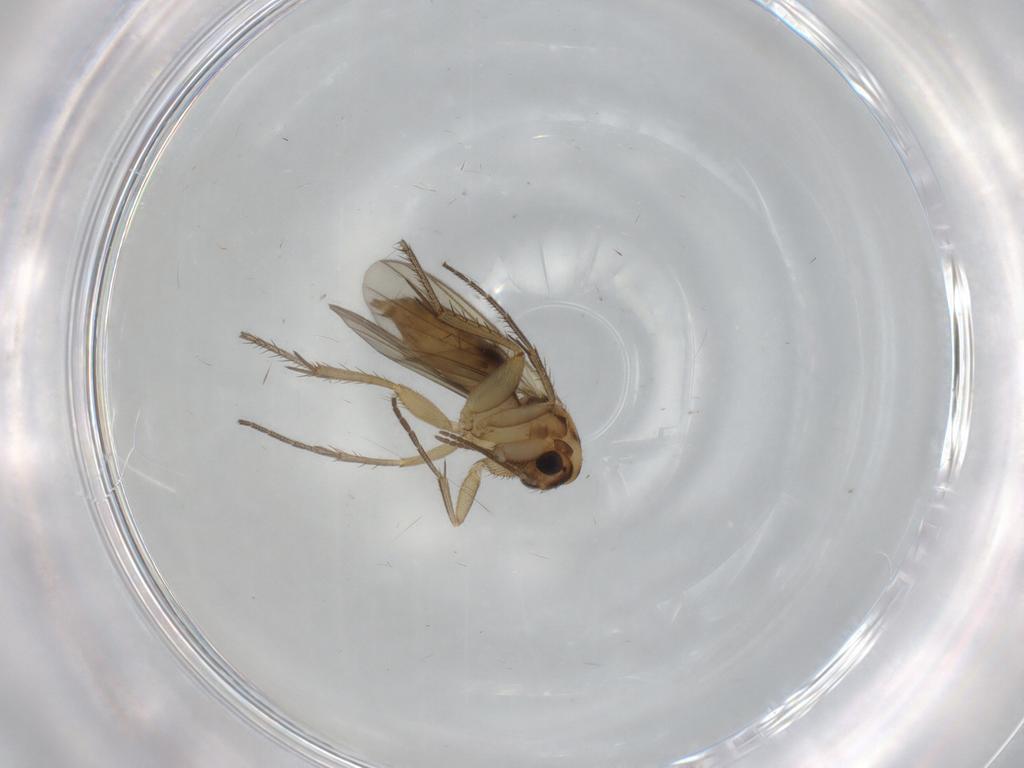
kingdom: Animalia
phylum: Arthropoda
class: Insecta
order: Diptera
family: Mycetophilidae
